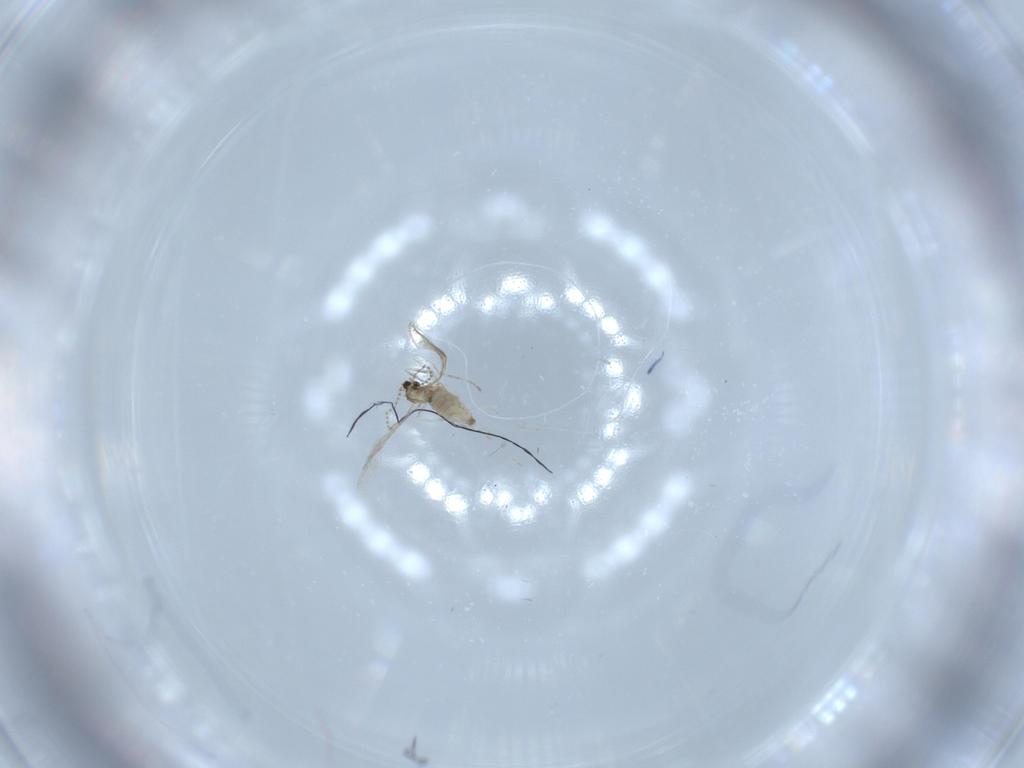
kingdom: Animalia
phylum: Arthropoda
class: Insecta
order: Diptera
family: Cecidomyiidae
